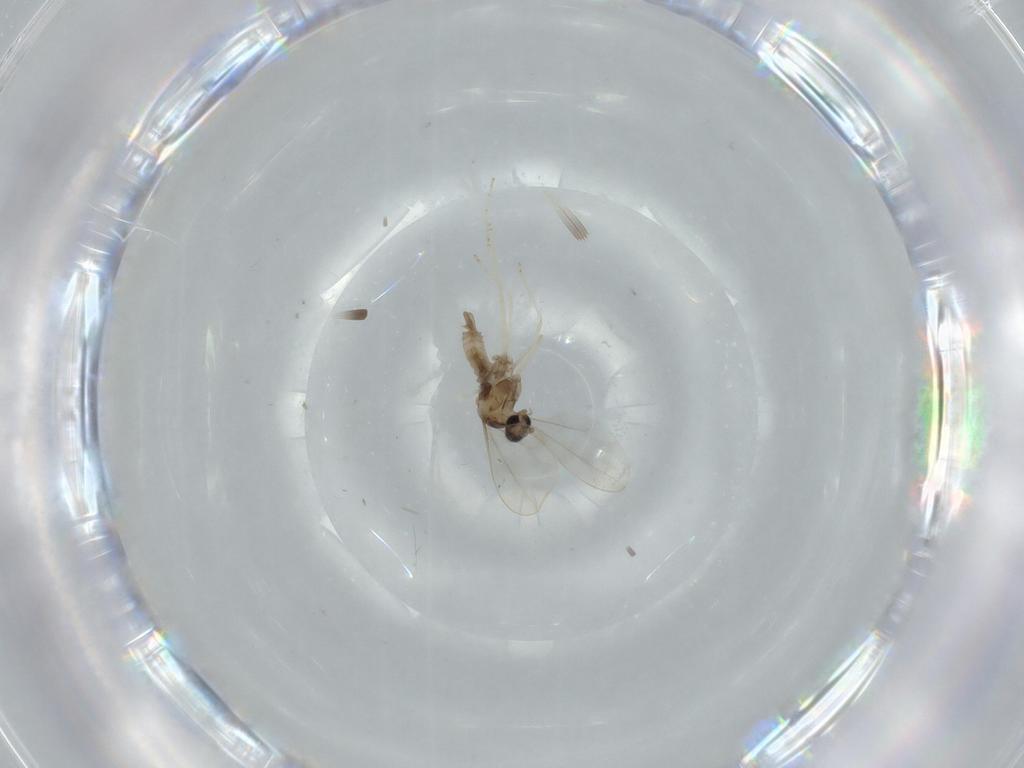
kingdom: Animalia
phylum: Arthropoda
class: Insecta
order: Diptera
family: Cecidomyiidae
